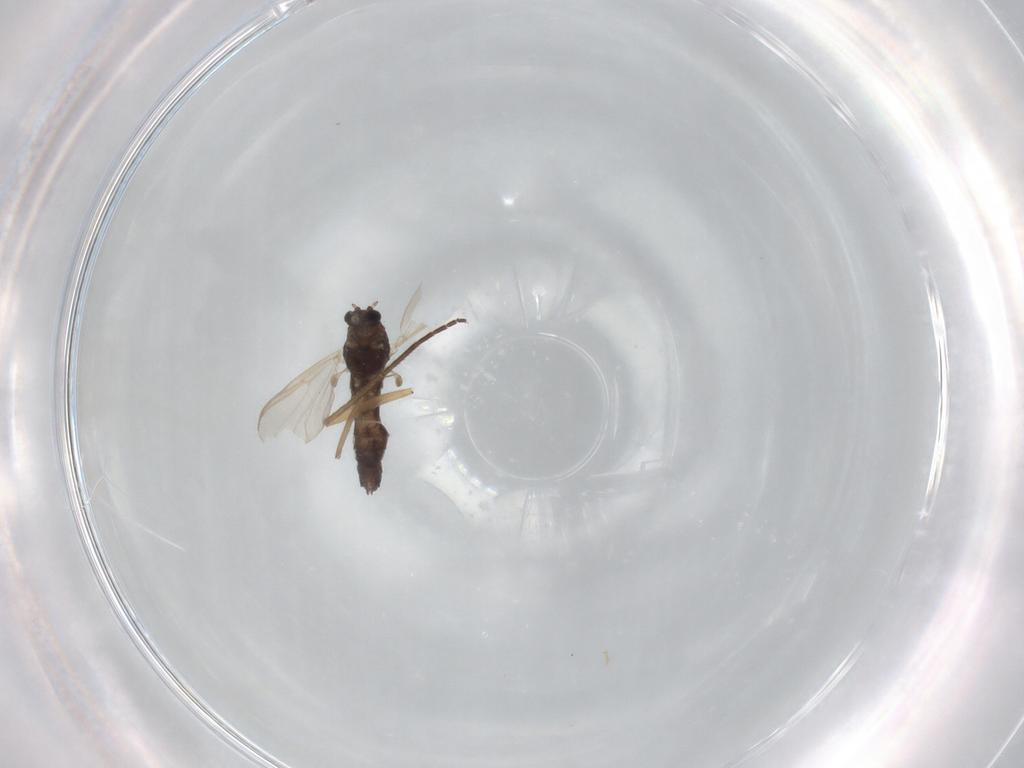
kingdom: Animalia
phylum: Arthropoda
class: Insecta
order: Diptera
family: Chironomidae
